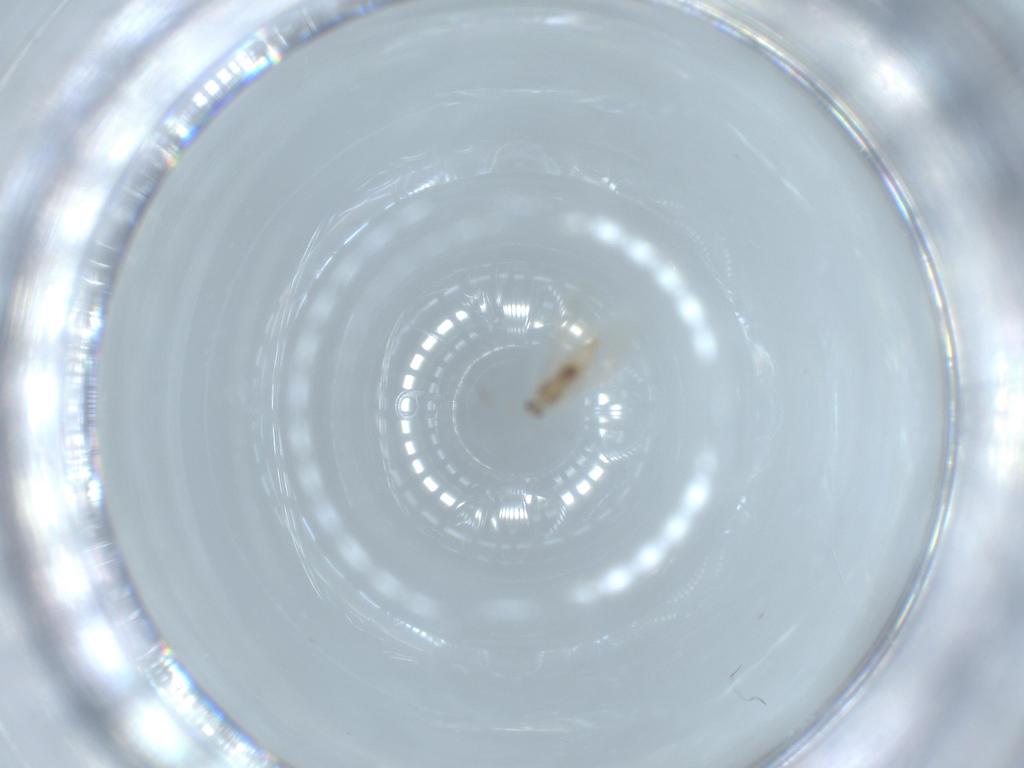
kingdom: Animalia
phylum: Arthropoda
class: Insecta
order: Diptera
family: Cecidomyiidae
